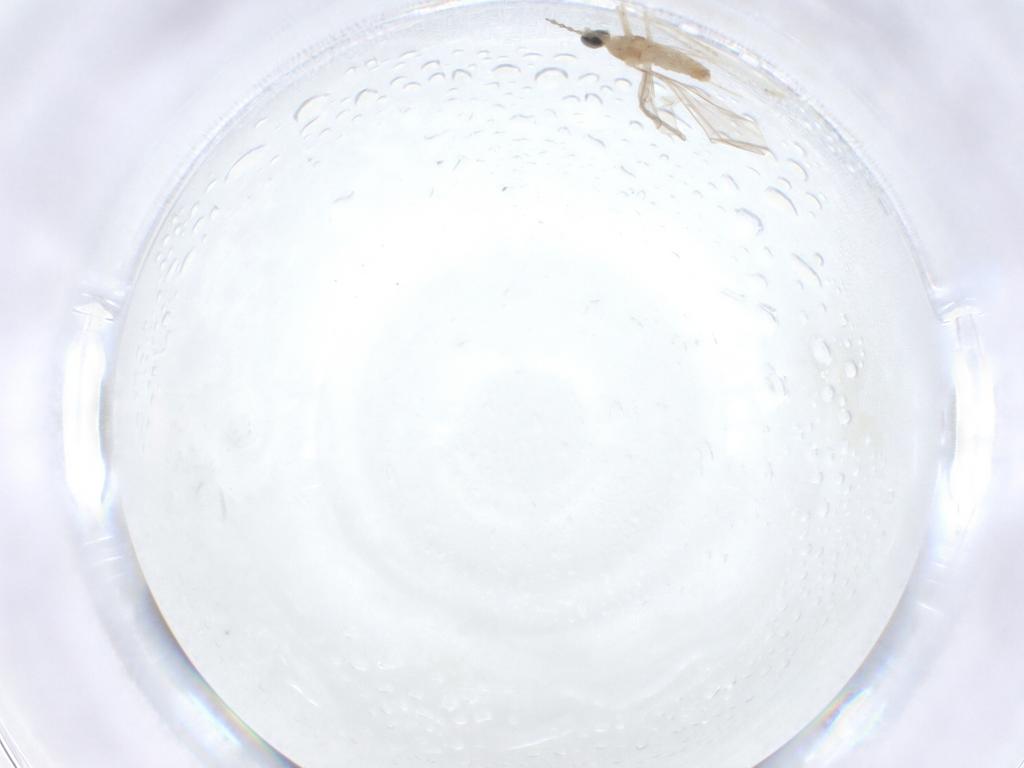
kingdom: Animalia
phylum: Arthropoda
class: Insecta
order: Diptera
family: Cecidomyiidae
